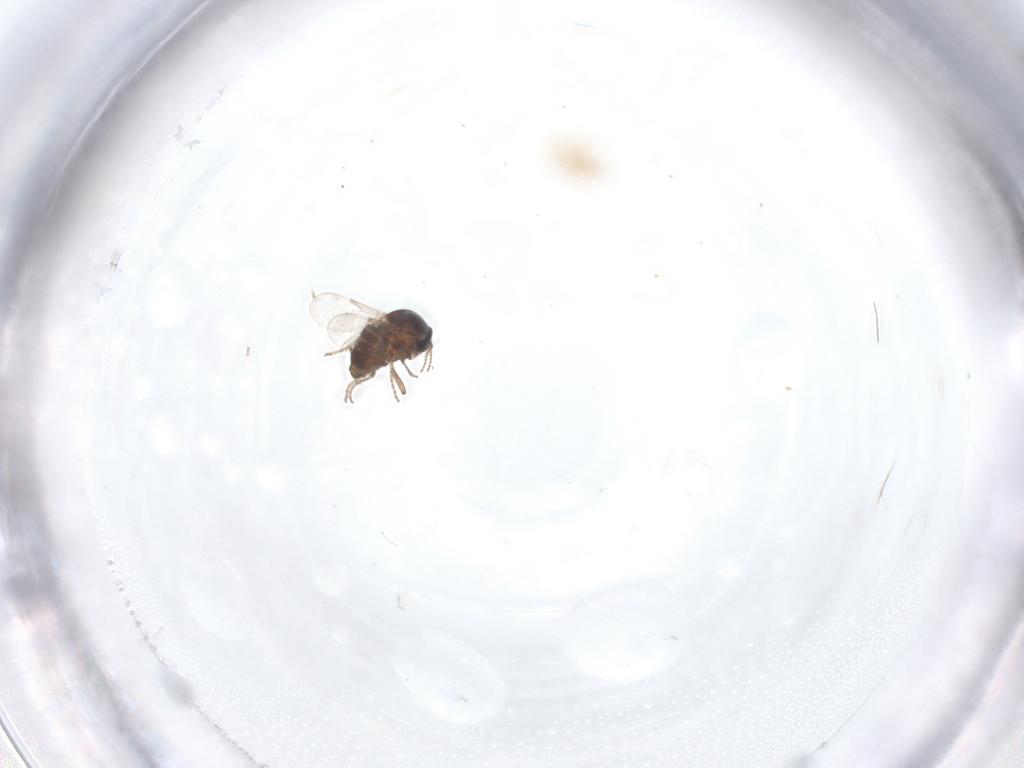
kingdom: Animalia
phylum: Arthropoda
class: Insecta
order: Diptera
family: Ceratopogonidae
